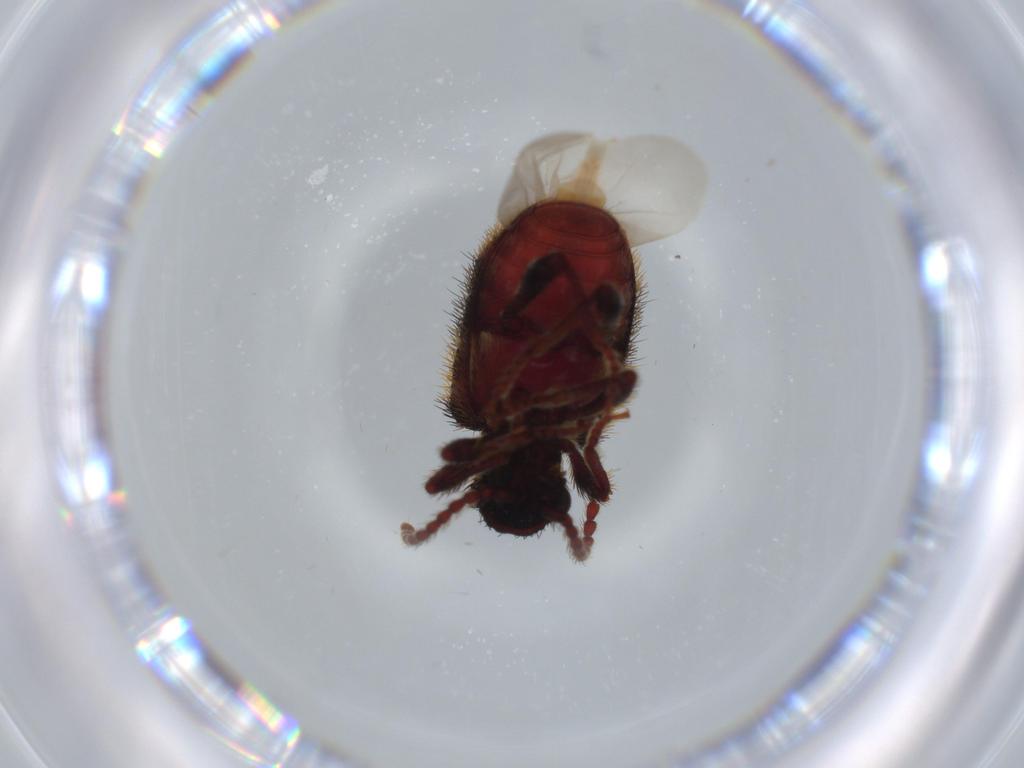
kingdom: Animalia
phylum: Arthropoda
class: Insecta
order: Coleoptera
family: Ptinidae
